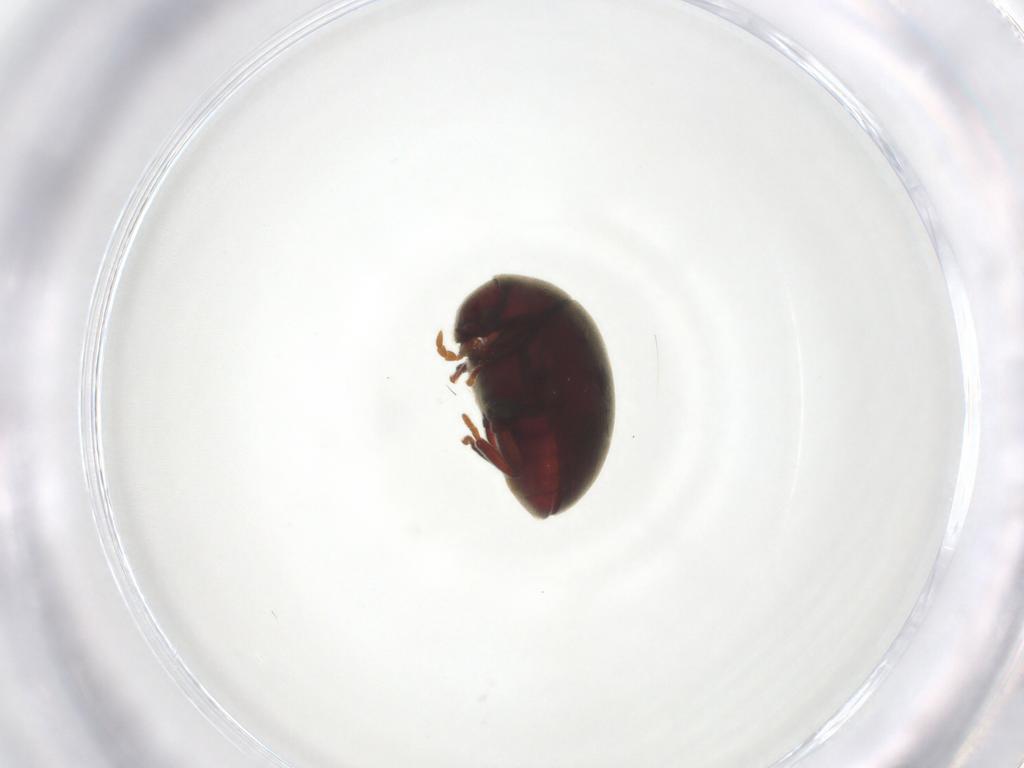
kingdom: Animalia
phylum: Arthropoda
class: Insecta
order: Coleoptera
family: Ptinidae
